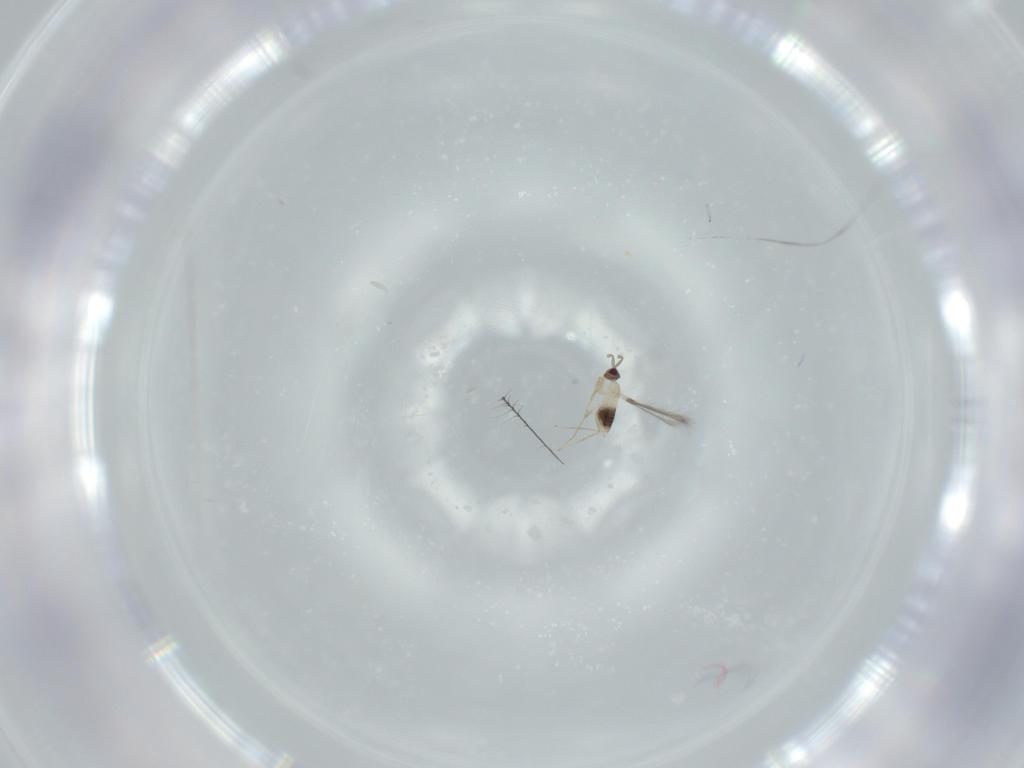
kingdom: Animalia
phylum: Arthropoda
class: Insecta
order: Hymenoptera
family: Mymaridae
